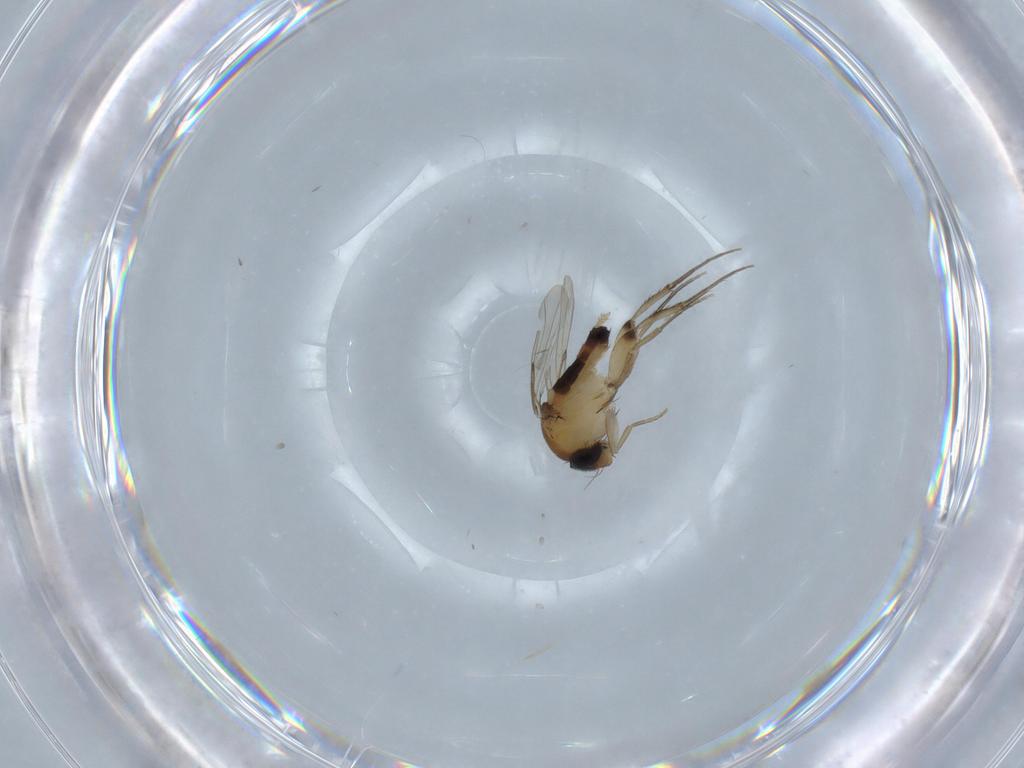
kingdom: Animalia
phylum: Arthropoda
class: Insecta
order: Diptera
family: Phoridae
